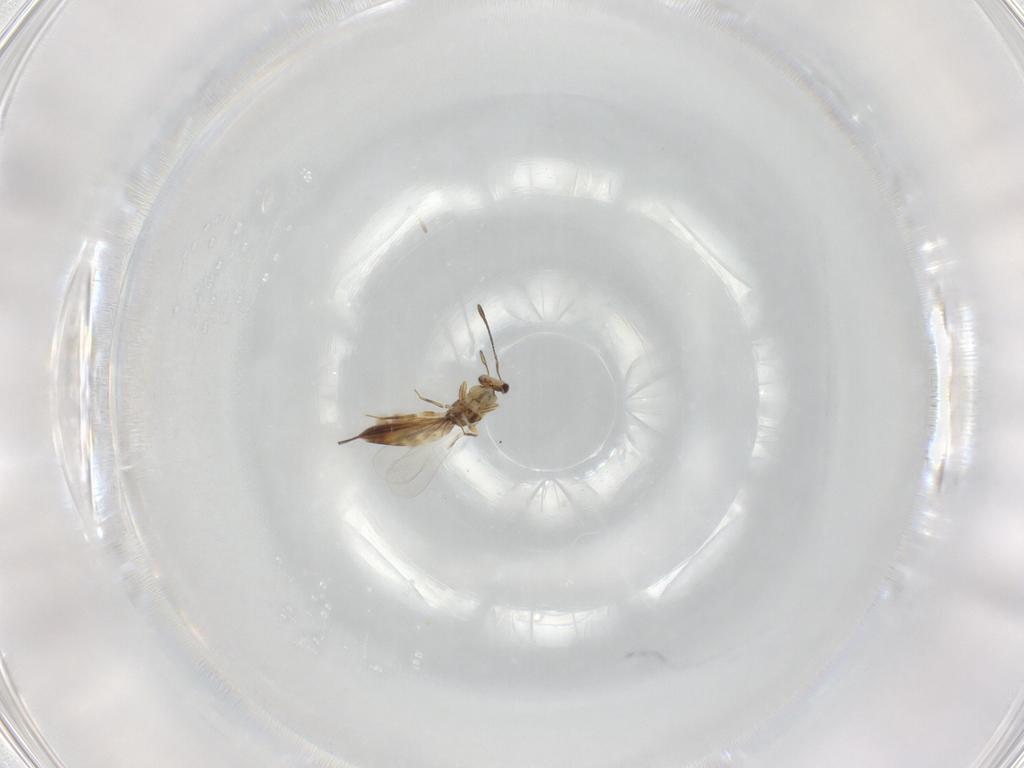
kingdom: Animalia
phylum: Arthropoda
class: Insecta
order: Hymenoptera
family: Mymaridae
